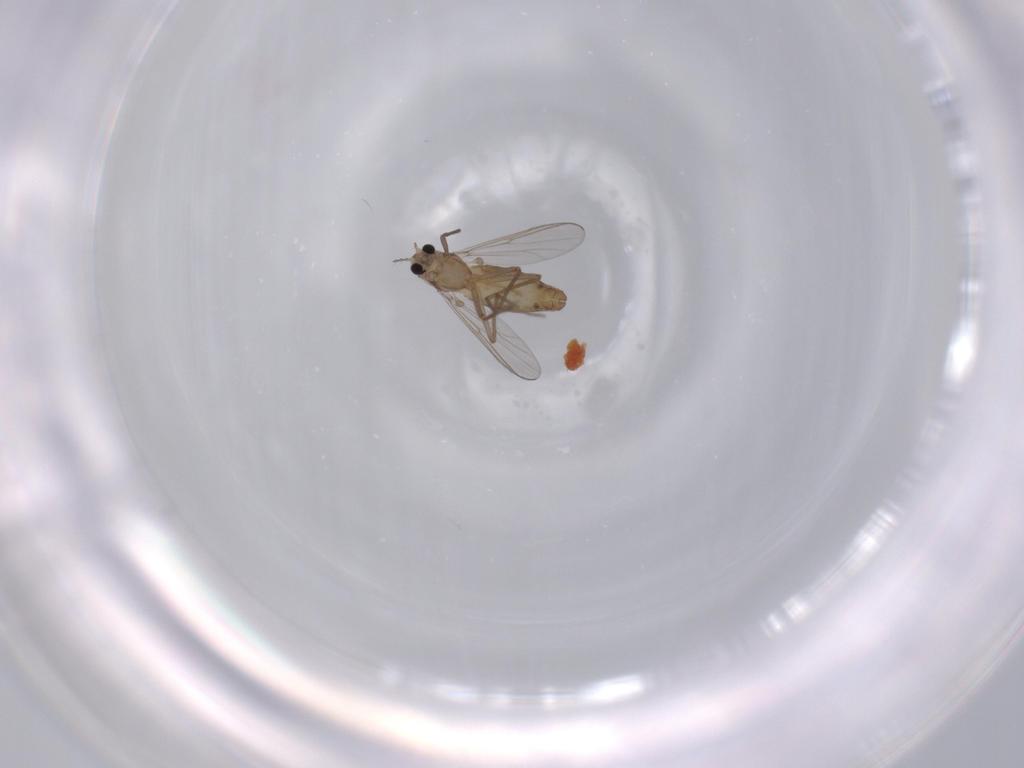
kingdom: Animalia
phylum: Arthropoda
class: Insecta
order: Diptera
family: Chironomidae
